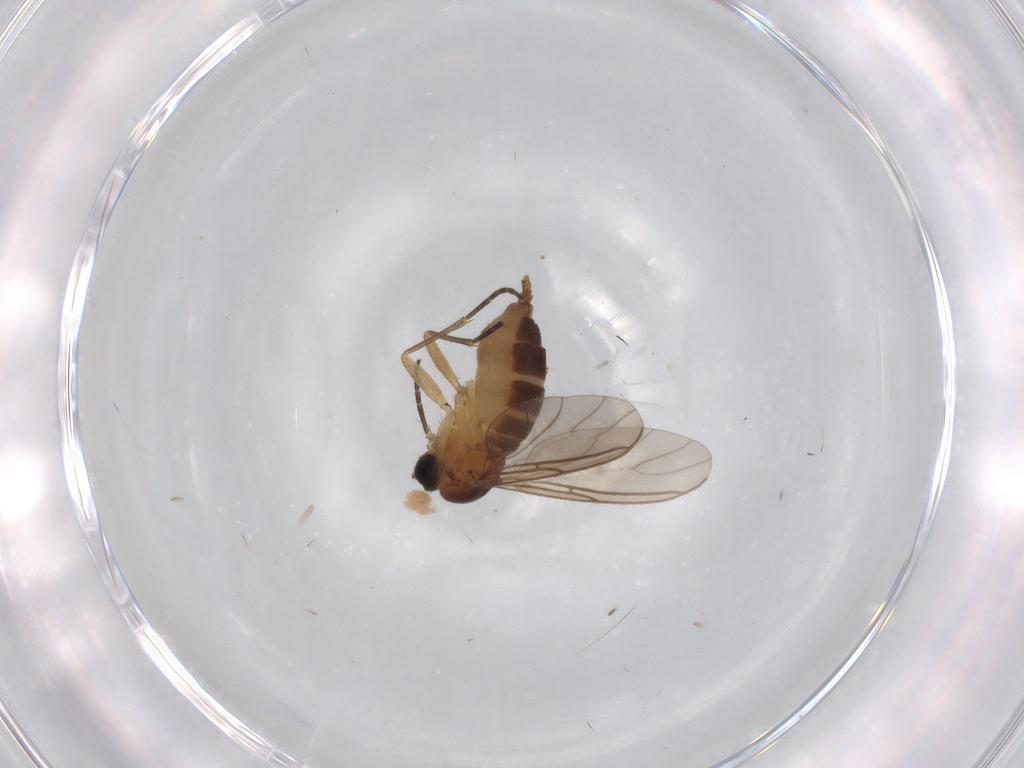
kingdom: Animalia
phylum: Arthropoda
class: Insecta
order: Diptera
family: Sciaridae
